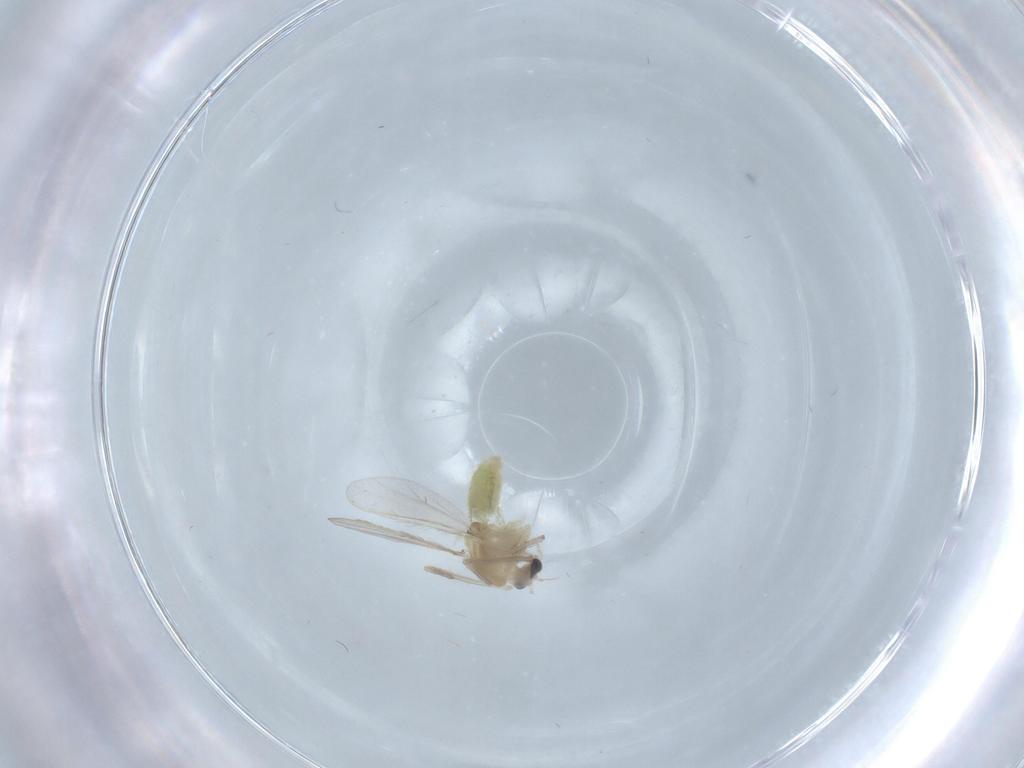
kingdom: Animalia
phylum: Arthropoda
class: Insecta
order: Diptera
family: Chironomidae
